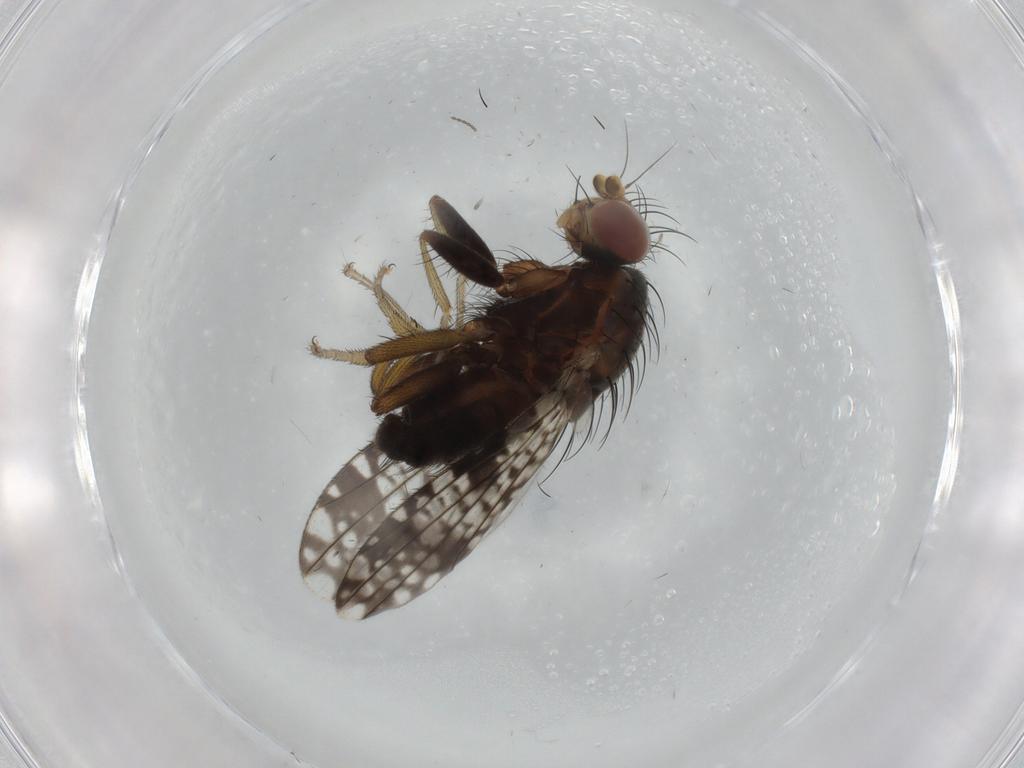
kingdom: Animalia
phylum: Arthropoda
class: Insecta
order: Diptera
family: Tephritidae
